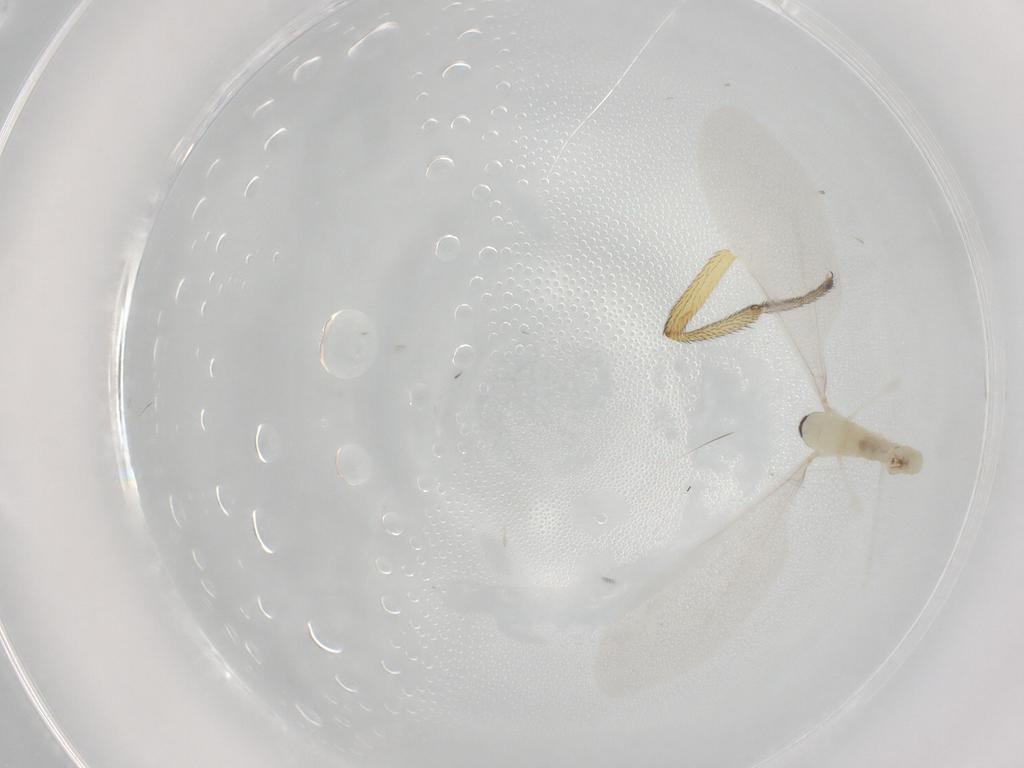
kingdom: Animalia
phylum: Arthropoda
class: Insecta
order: Diptera
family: Cecidomyiidae
